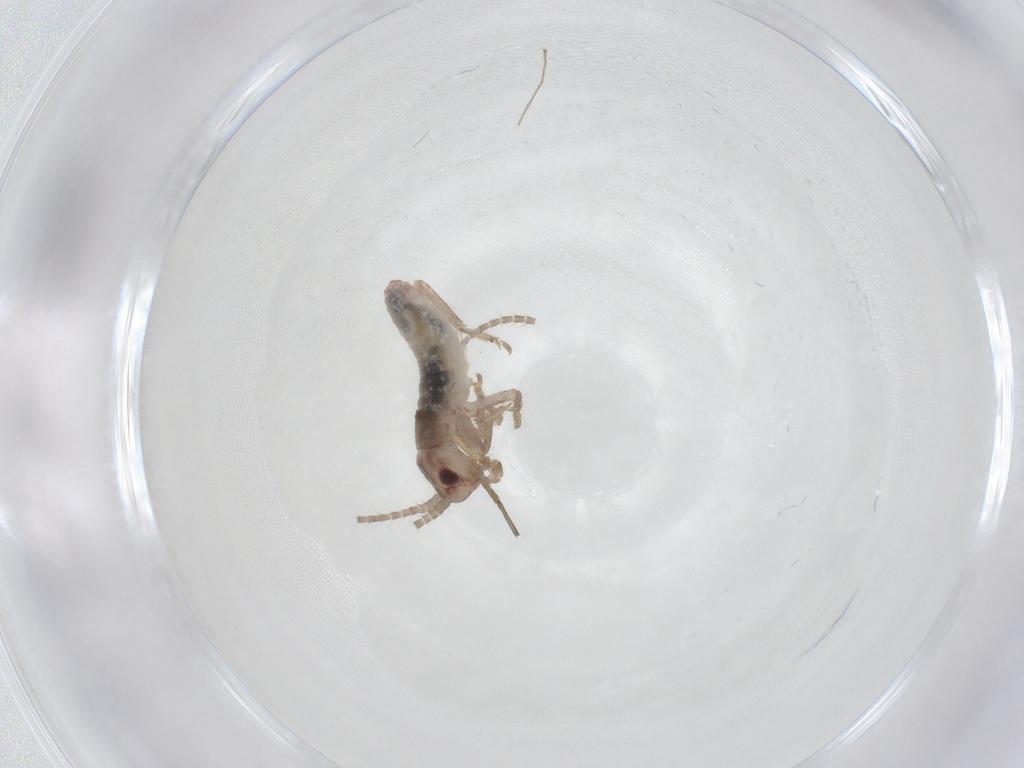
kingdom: Animalia
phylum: Arthropoda
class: Insecta
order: Orthoptera
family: Mogoplistidae
